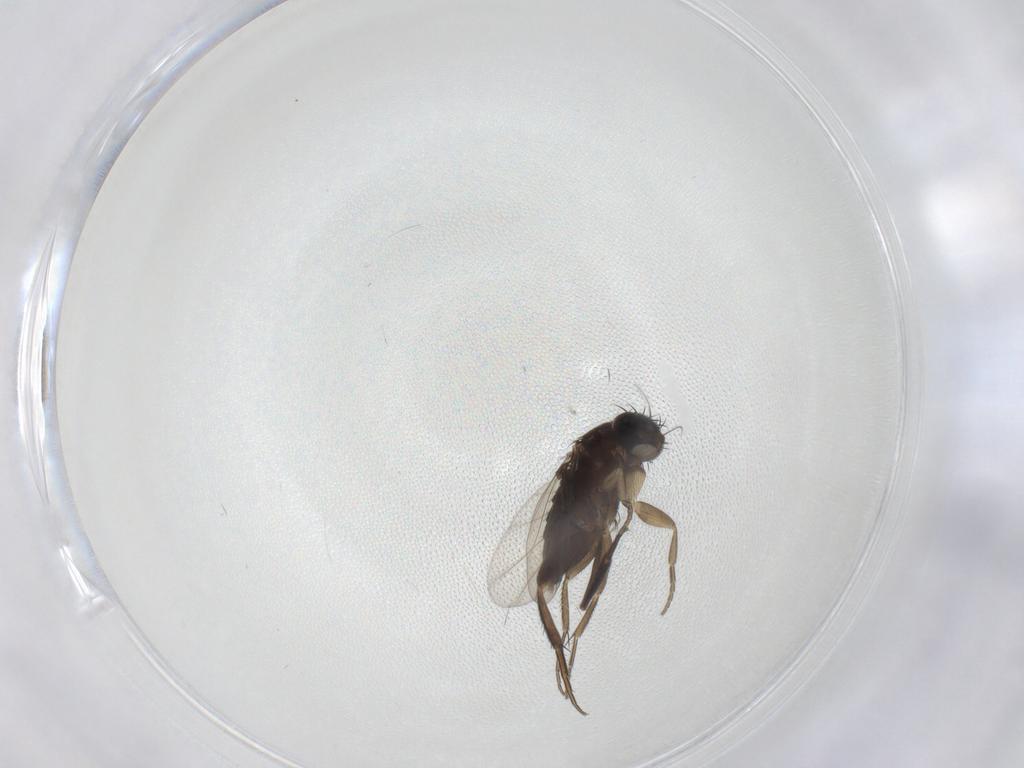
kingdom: Animalia
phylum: Arthropoda
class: Insecta
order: Diptera
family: Phoridae
